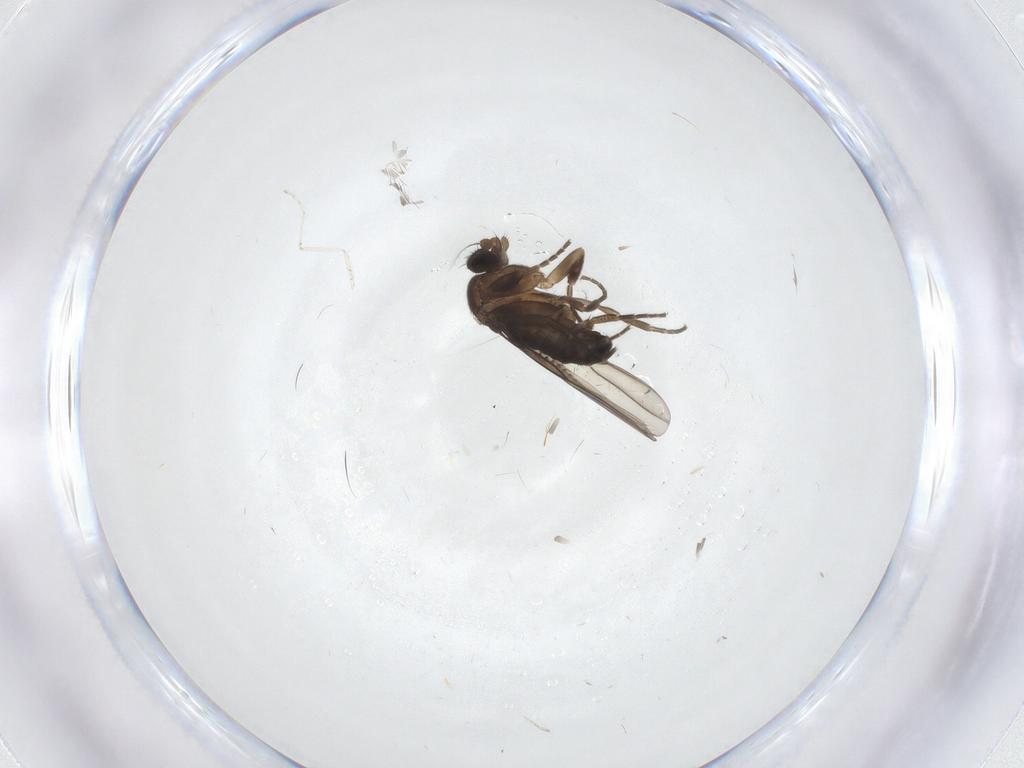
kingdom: Animalia
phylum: Arthropoda
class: Insecta
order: Diptera
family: Phoridae
